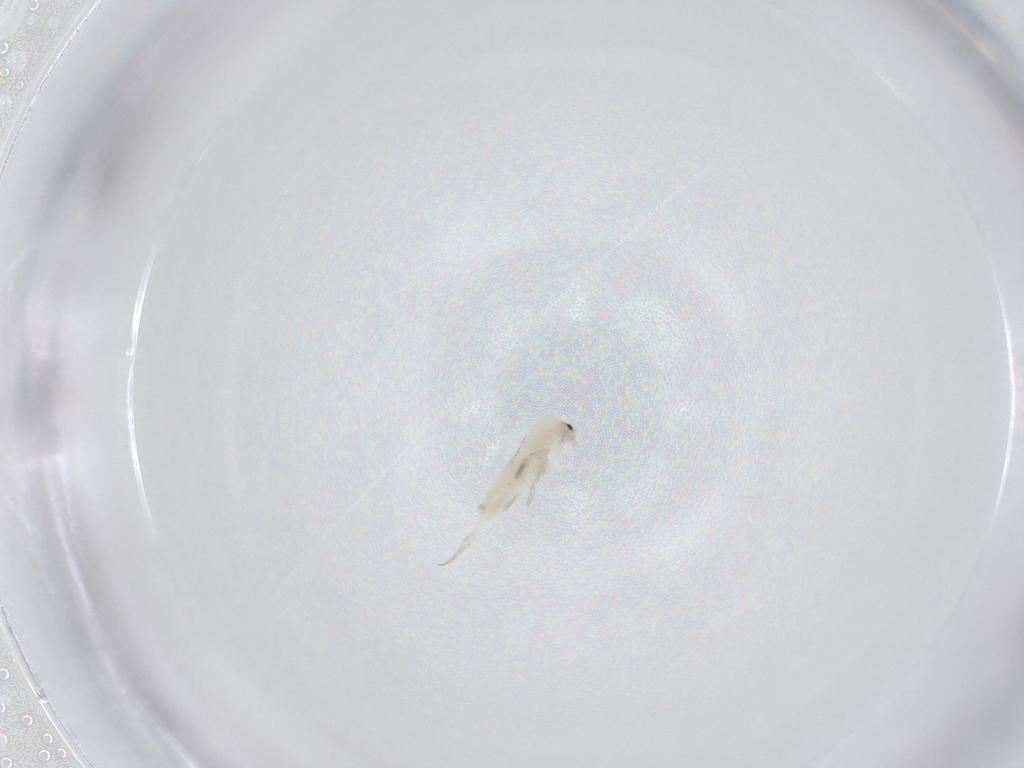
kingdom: Animalia
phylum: Arthropoda
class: Collembola
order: Entomobryomorpha
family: Entomobryidae
